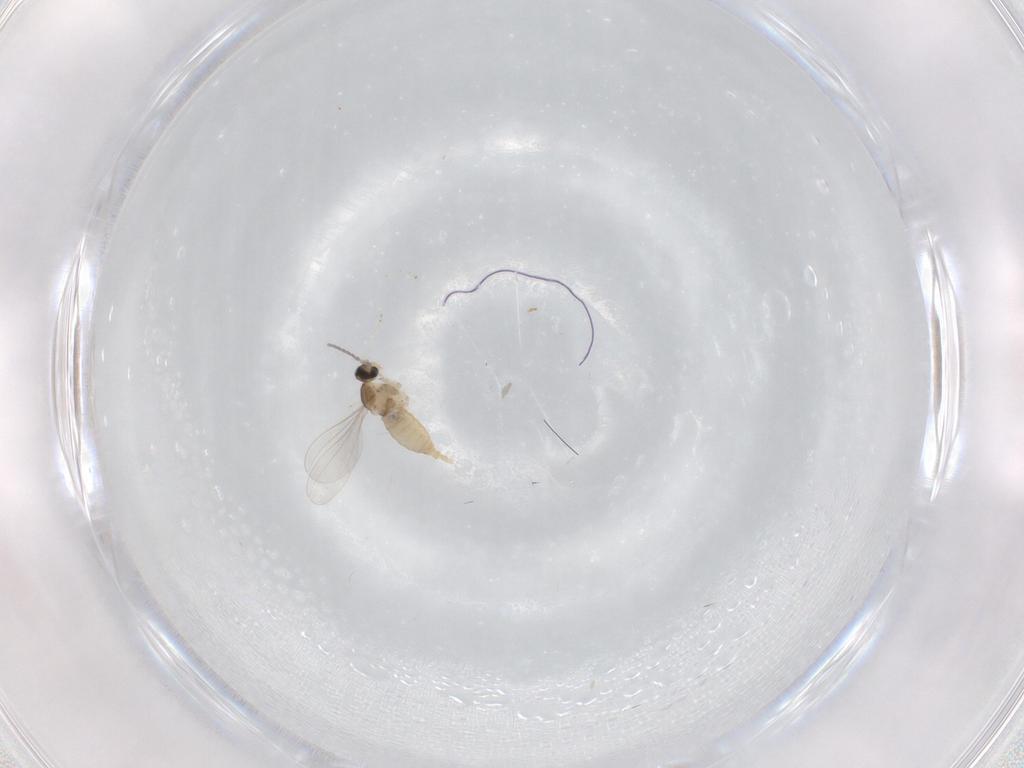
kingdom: Animalia
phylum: Arthropoda
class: Insecta
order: Diptera
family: Cecidomyiidae
